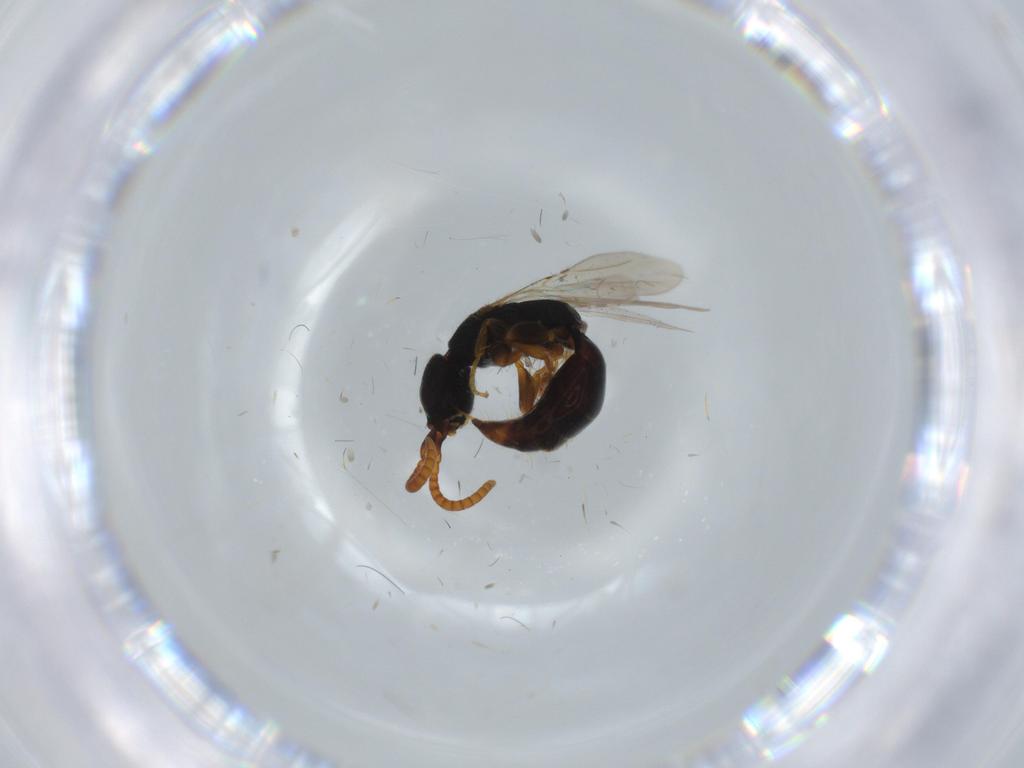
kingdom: Animalia
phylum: Arthropoda
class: Insecta
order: Hymenoptera
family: Bethylidae
